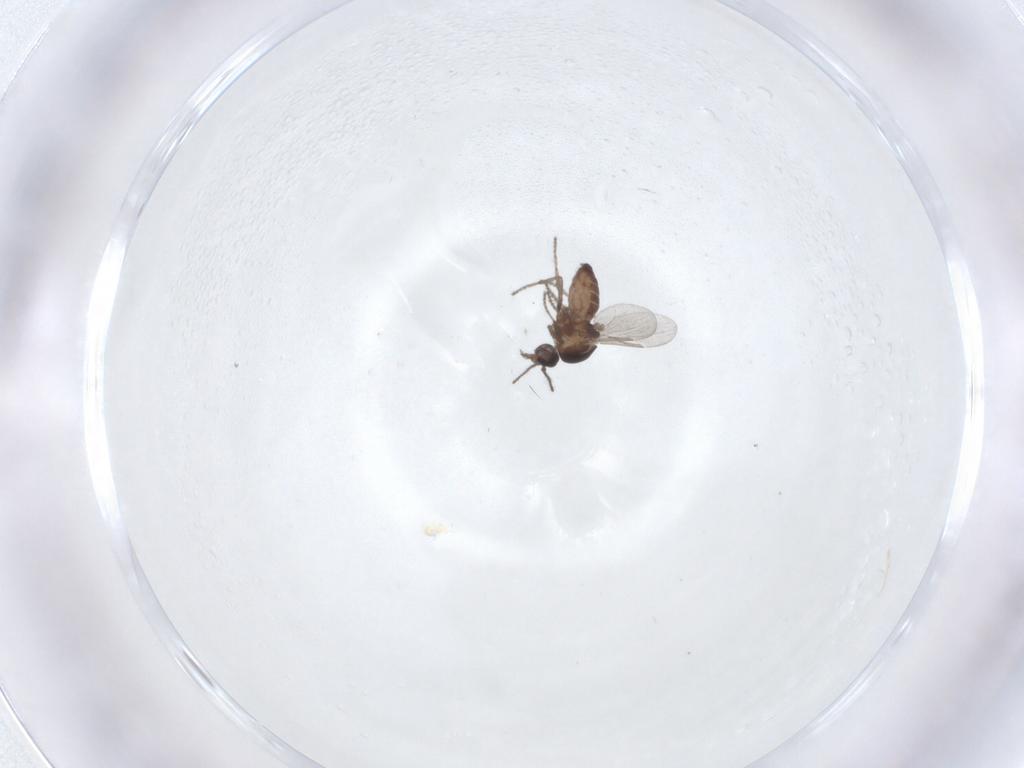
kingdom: Animalia
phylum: Arthropoda
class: Insecta
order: Diptera
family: Ceratopogonidae
